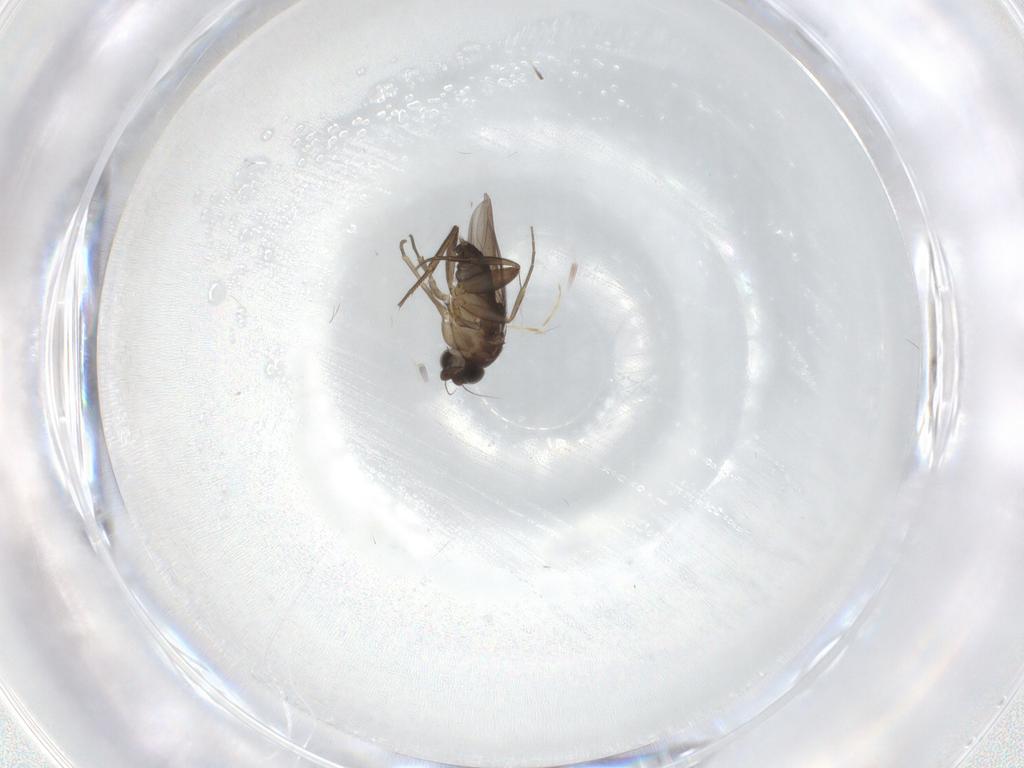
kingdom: Animalia
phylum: Arthropoda
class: Insecta
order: Diptera
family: Phoridae
